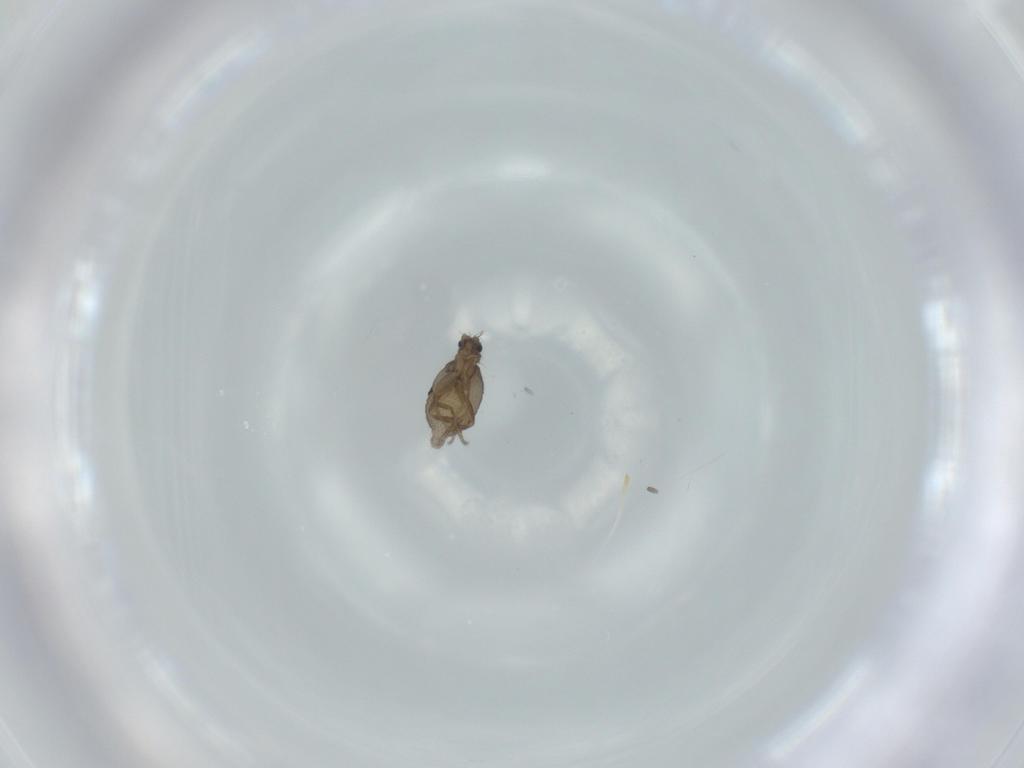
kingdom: Animalia
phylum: Arthropoda
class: Insecta
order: Diptera
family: Phoridae
